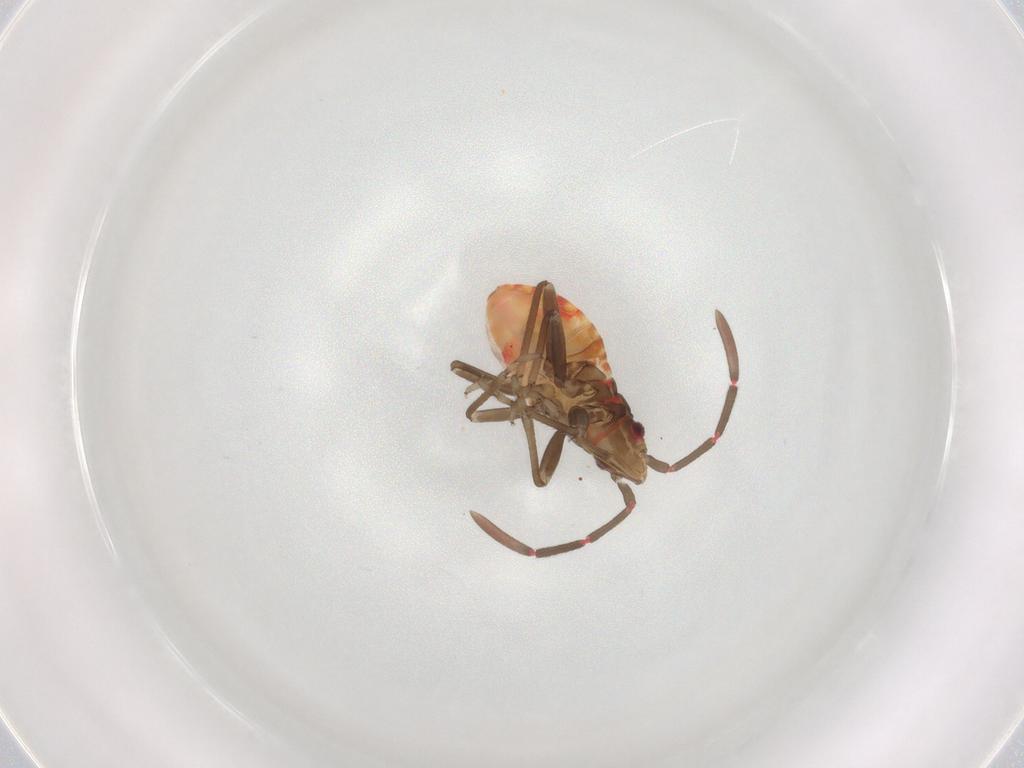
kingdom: Animalia
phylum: Arthropoda
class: Insecta
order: Hemiptera
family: Rhyparochromidae
